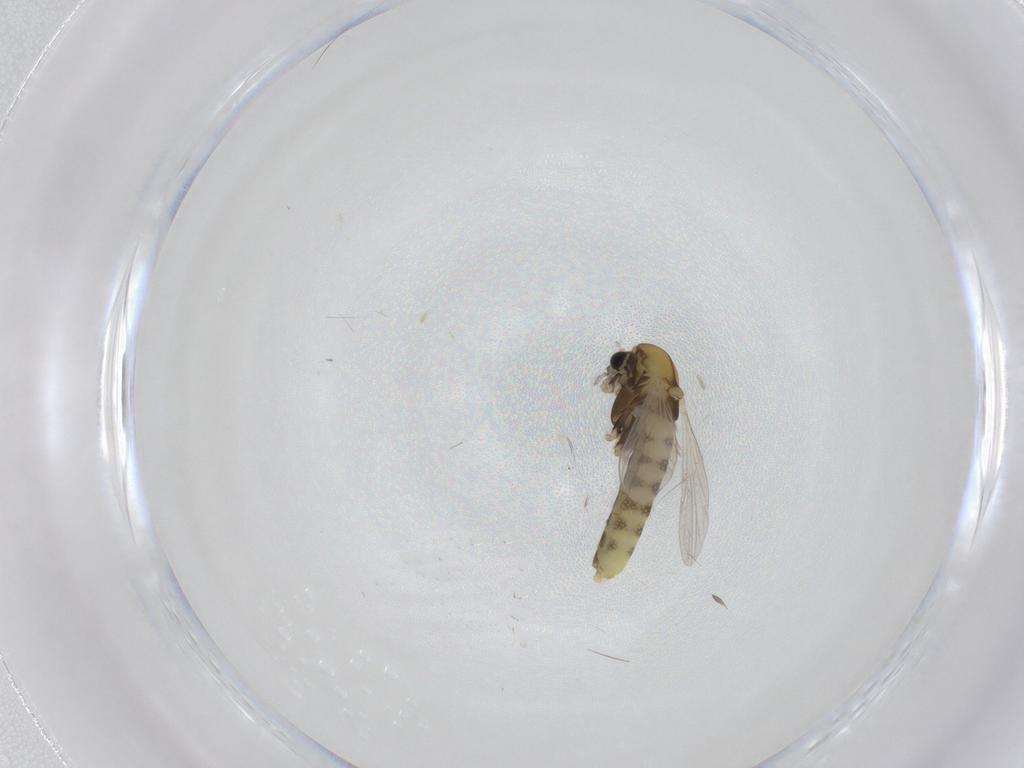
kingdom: Animalia
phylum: Arthropoda
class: Insecta
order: Diptera
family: Chironomidae
